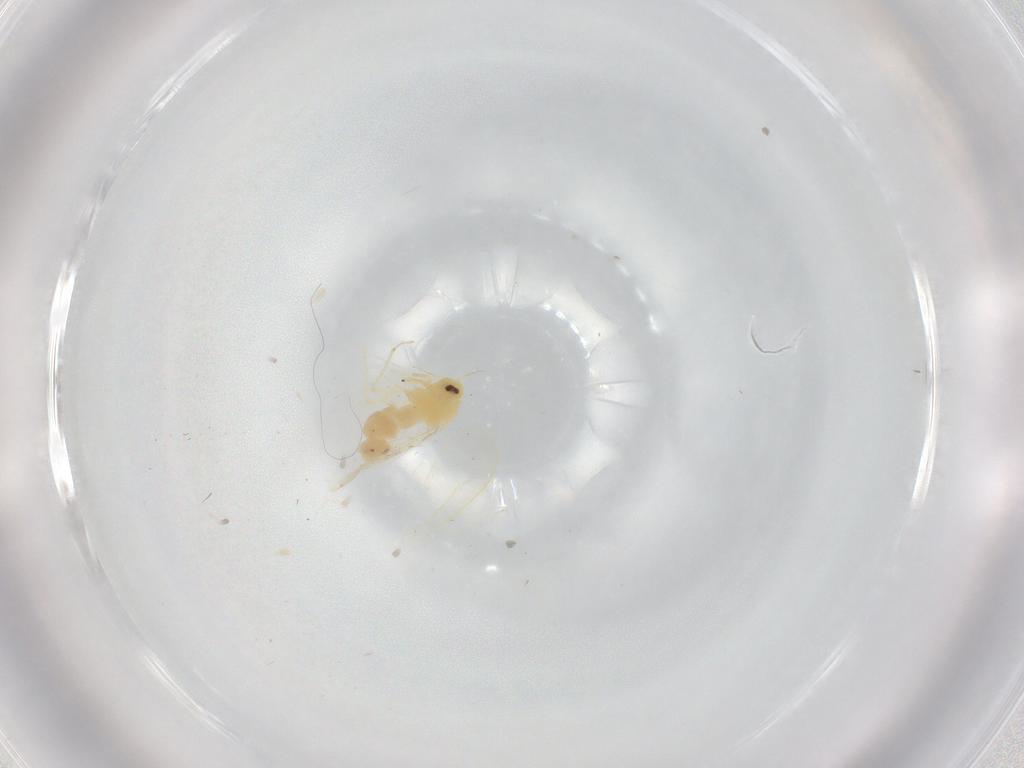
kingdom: Animalia
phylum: Arthropoda
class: Insecta
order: Hemiptera
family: Aleyrodidae
